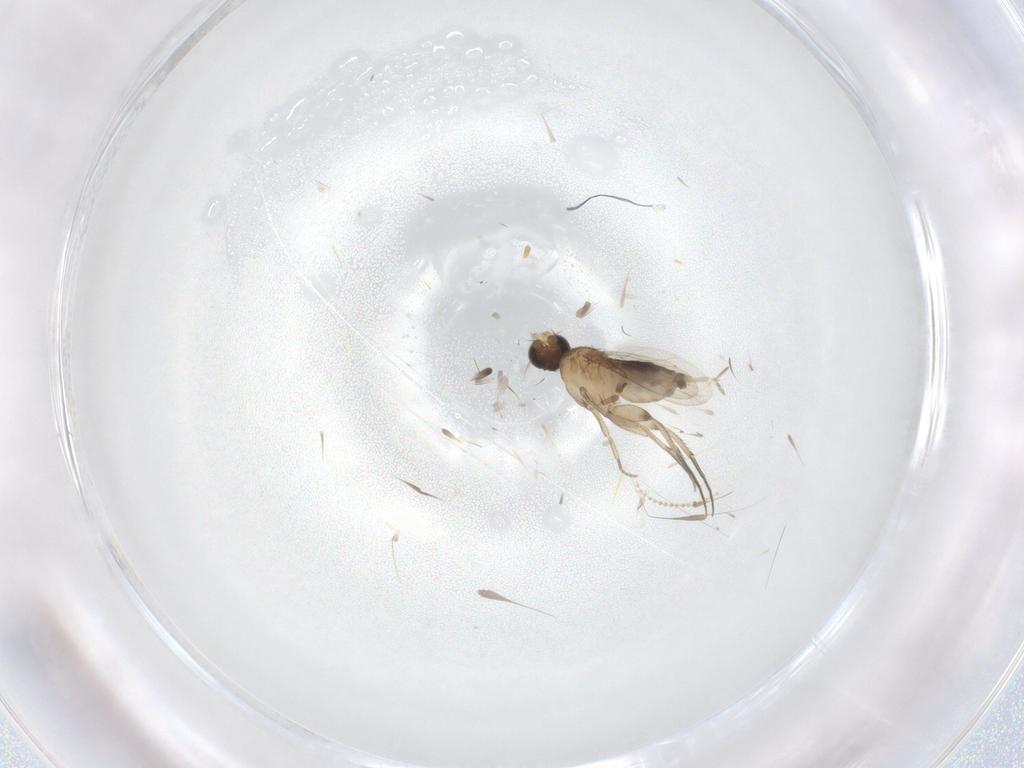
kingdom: Animalia
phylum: Arthropoda
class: Insecta
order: Diptera
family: Phoridae
